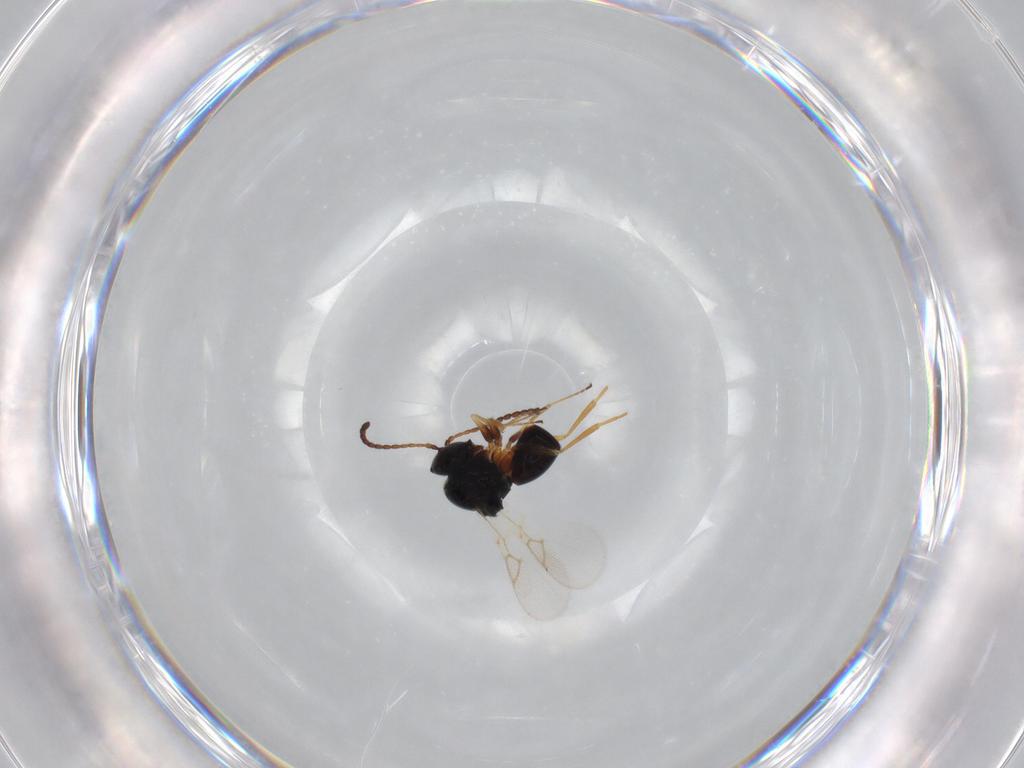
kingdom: Animalia
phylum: Arthropoda
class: Insecta
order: Hymenoptera
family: Figitidae
